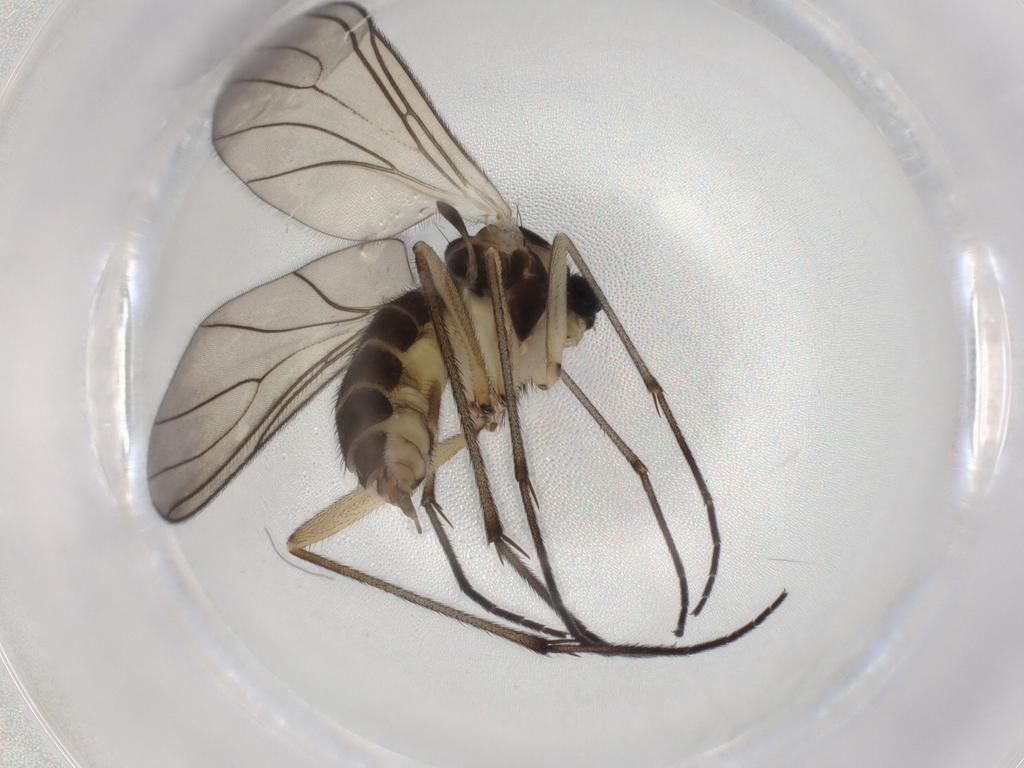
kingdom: Animalia
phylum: Arthropoda
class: Insecta
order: Diptera
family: Sciaridae
